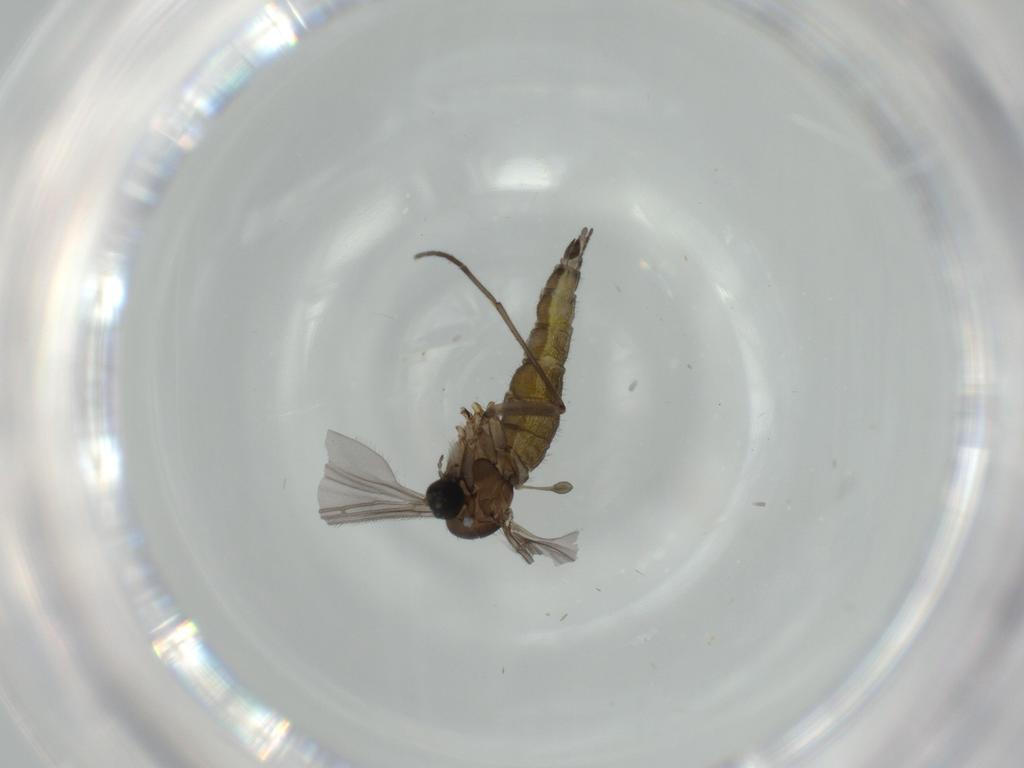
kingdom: Animalia
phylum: Arthropoda
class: Insecta
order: Diptera
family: Sciaridae
